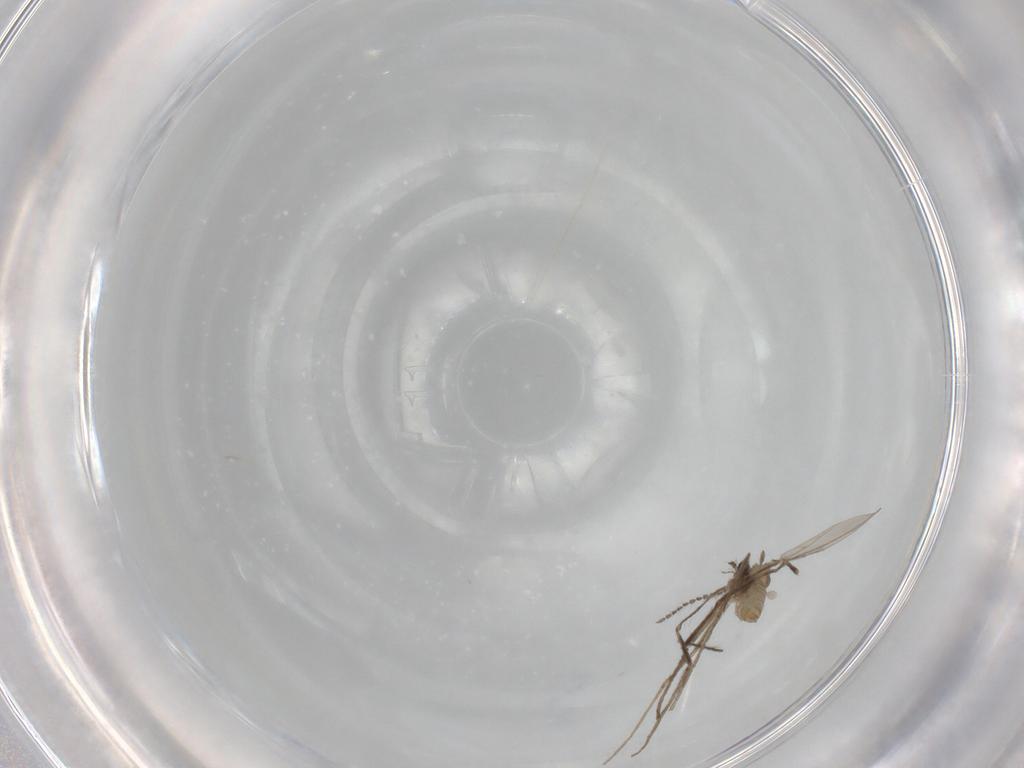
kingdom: Animalia
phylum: Arthropoda
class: Insecta
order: Diptera
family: Cecidomyiidae
